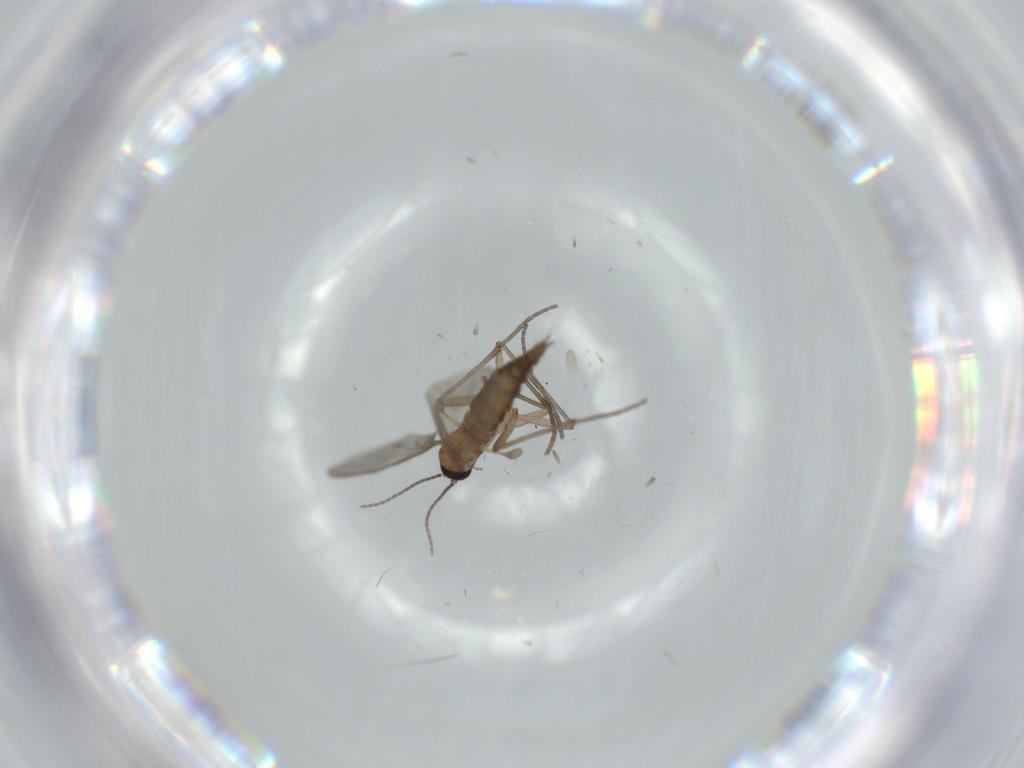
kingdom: Animalia
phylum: Arthropoda
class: Insecta
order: Diptera
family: Sciaridae
